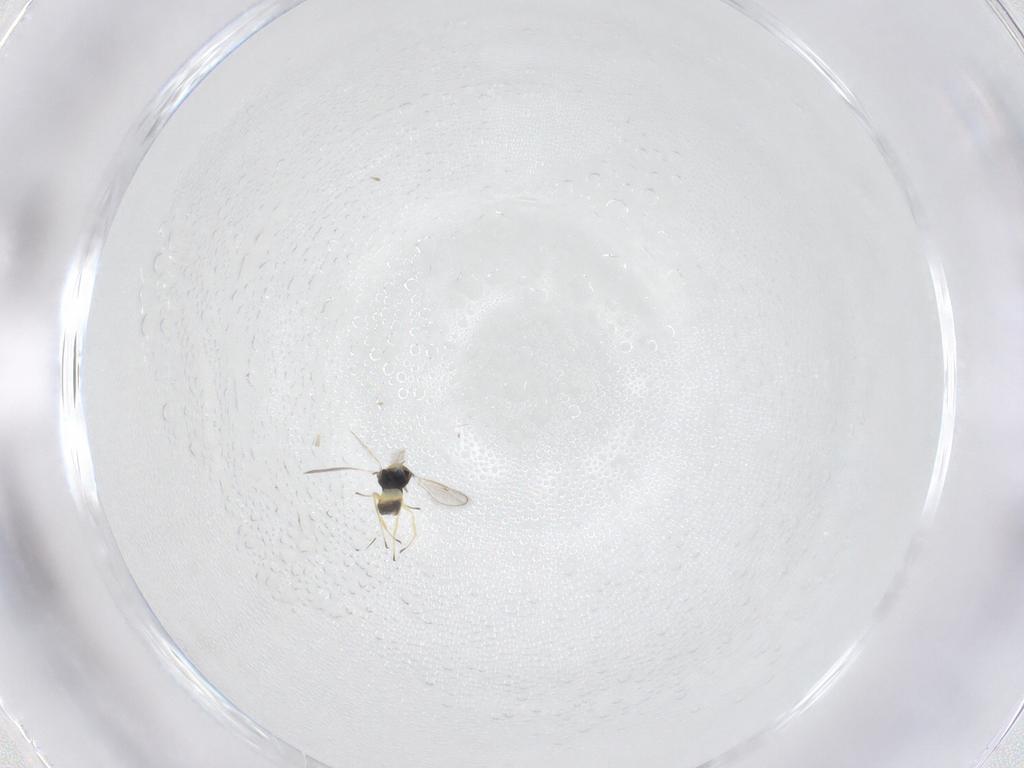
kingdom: Animalia
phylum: Arthropoda
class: Insecta
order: Hymenoptera
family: Eulophidae
